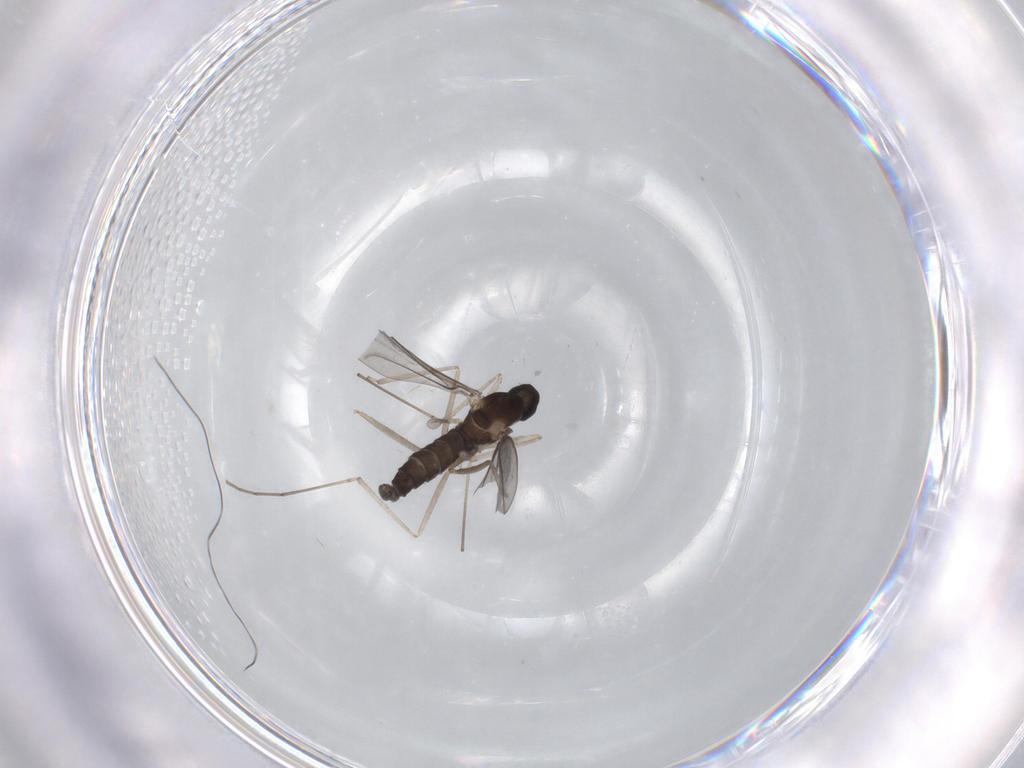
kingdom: Animalia
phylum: Arthropoda
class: Insecta
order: Diptera
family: Cecidomyiidae
